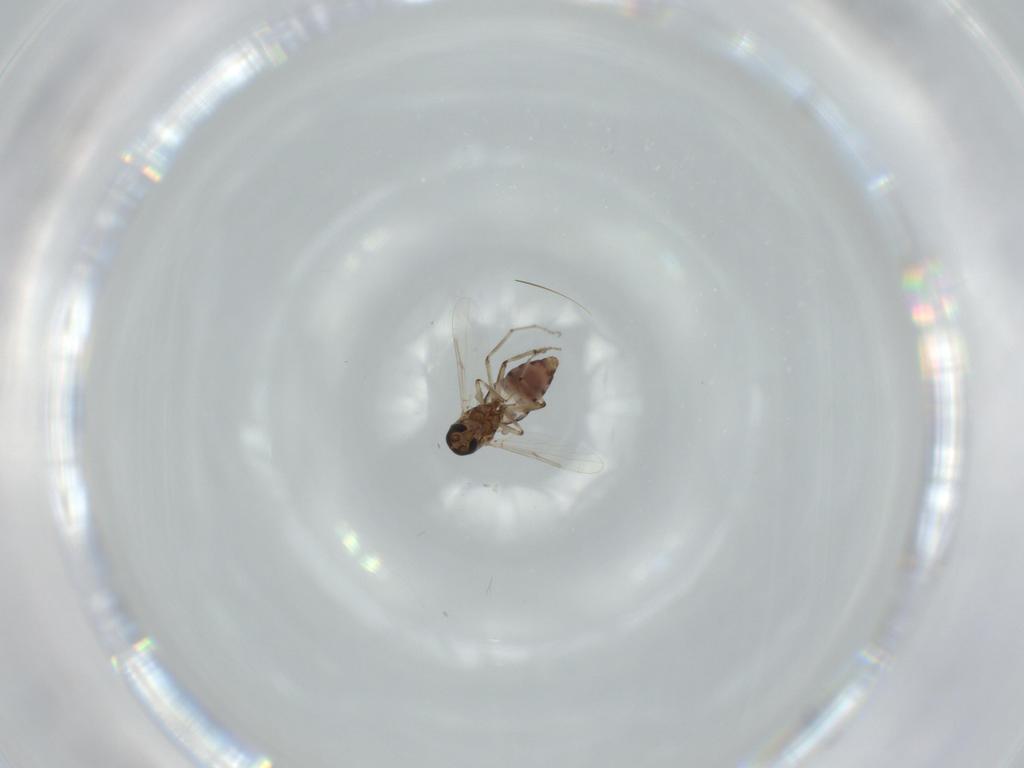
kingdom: Animalia
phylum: Arthropoda
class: Insecta
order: Diptera
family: Ceratopogonidae
